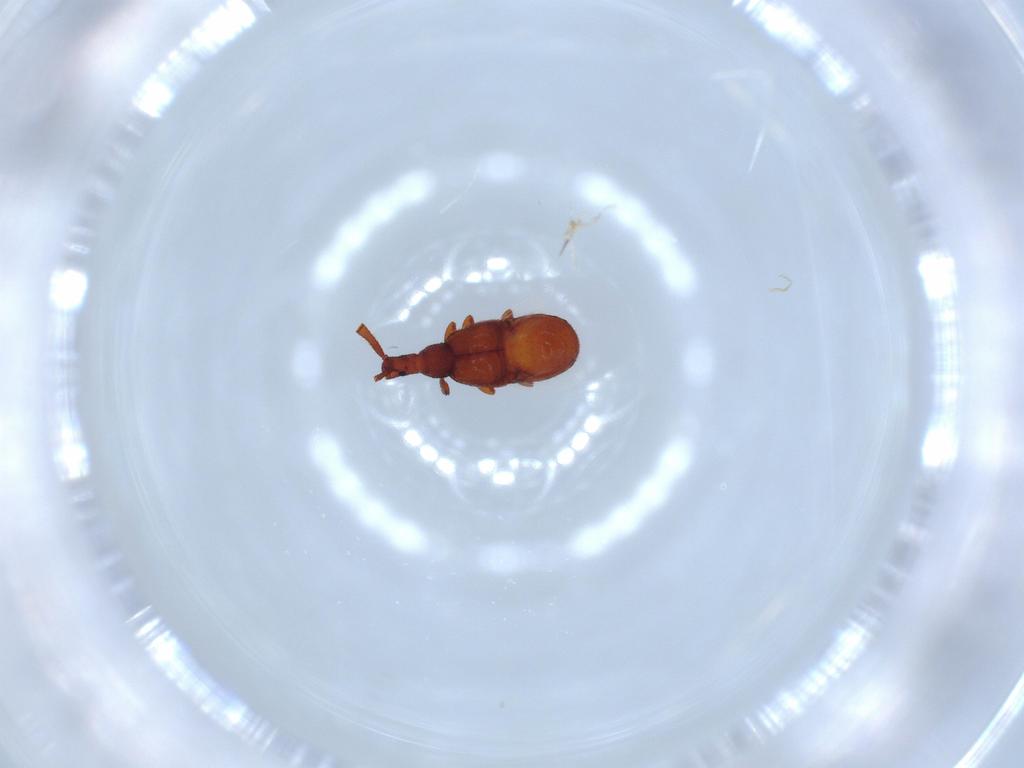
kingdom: Animalia
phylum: Arthropoda
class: Insecta
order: Coleoptera
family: Staphylinidae
